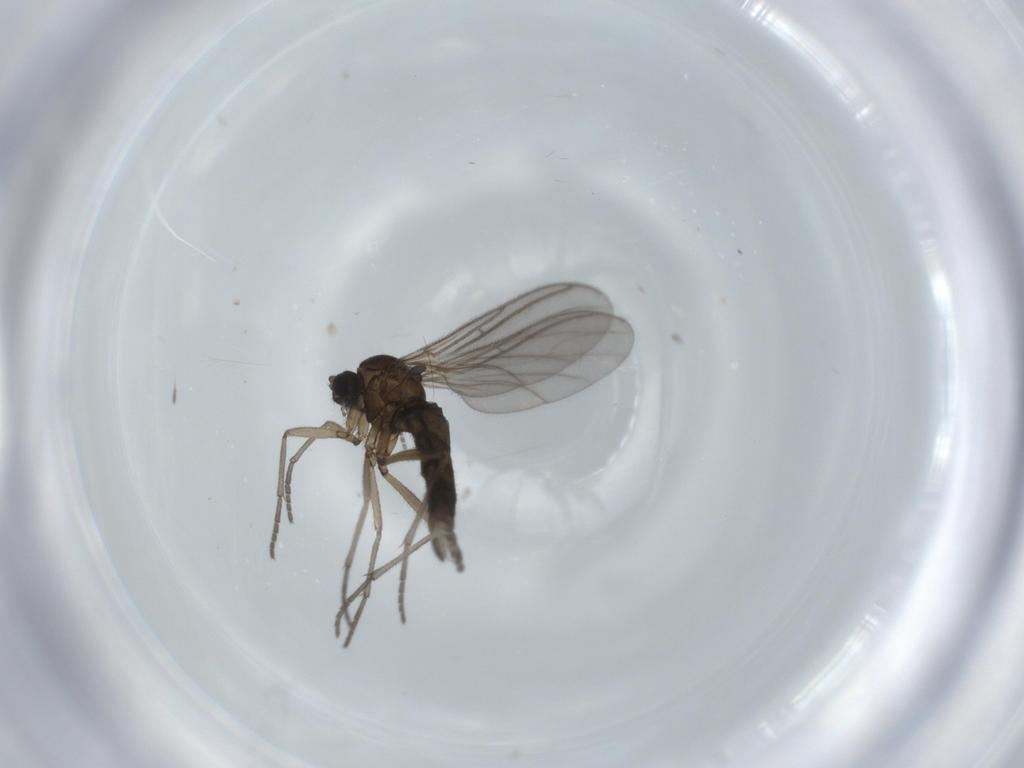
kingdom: Animalia
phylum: Arthropoda
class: Insecta
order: Diptera
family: Sciaridae
